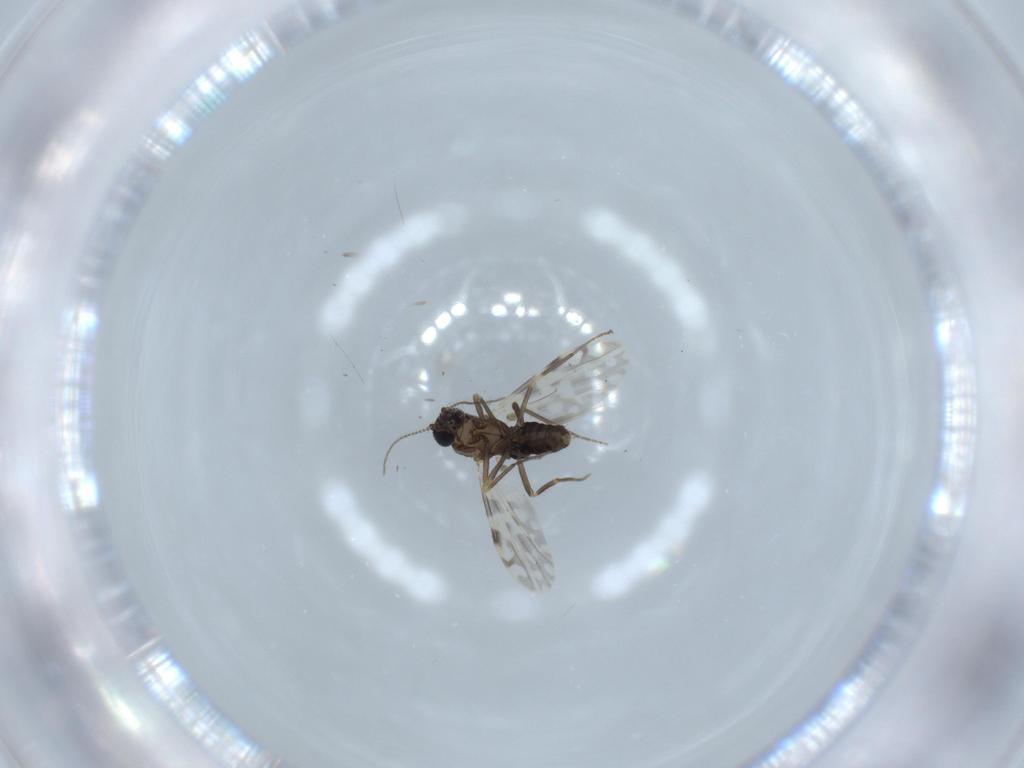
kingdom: Animalia
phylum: Arthropoda
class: Insecta
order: Diptera
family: Ceratopogonidae
